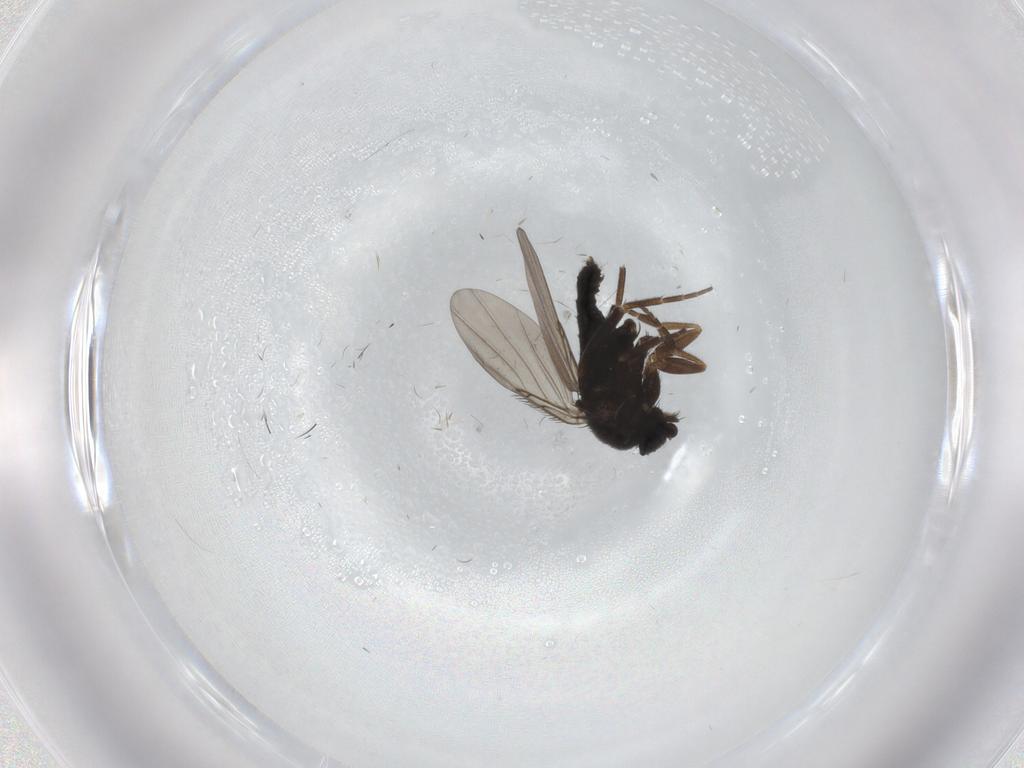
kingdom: Animalia
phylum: Arthropoda
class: Insecta
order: Diptera
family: Phoridae
